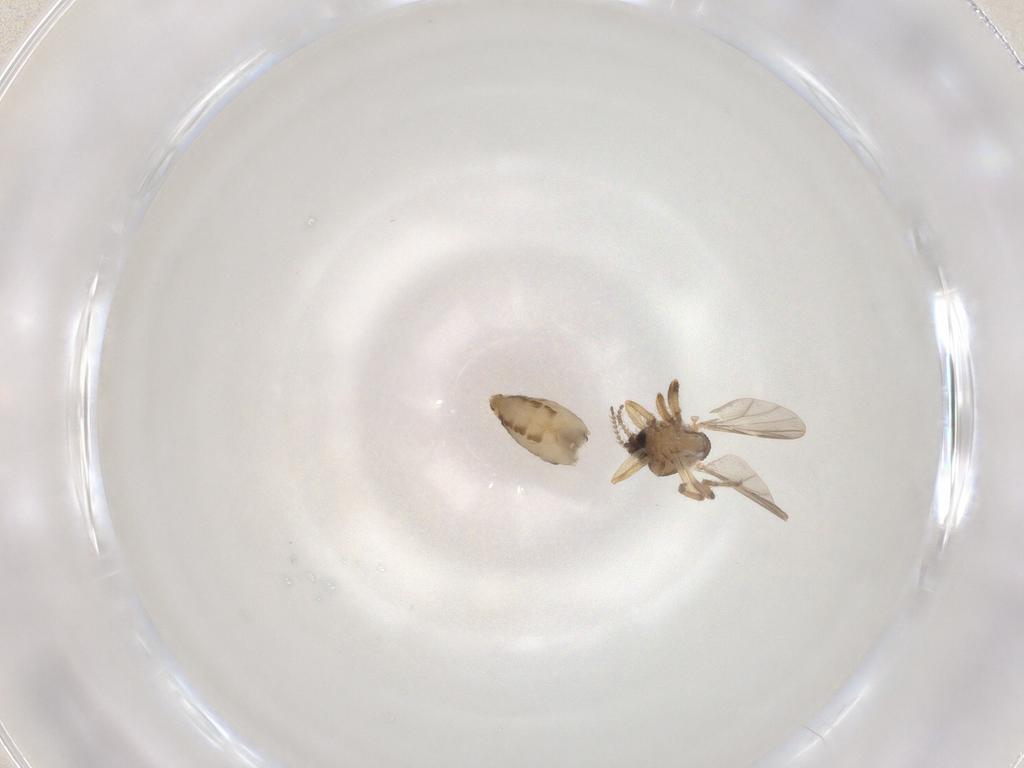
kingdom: Animalia
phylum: Arthropoda
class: Insecta
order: Diptera
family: Ceratopogonidae
